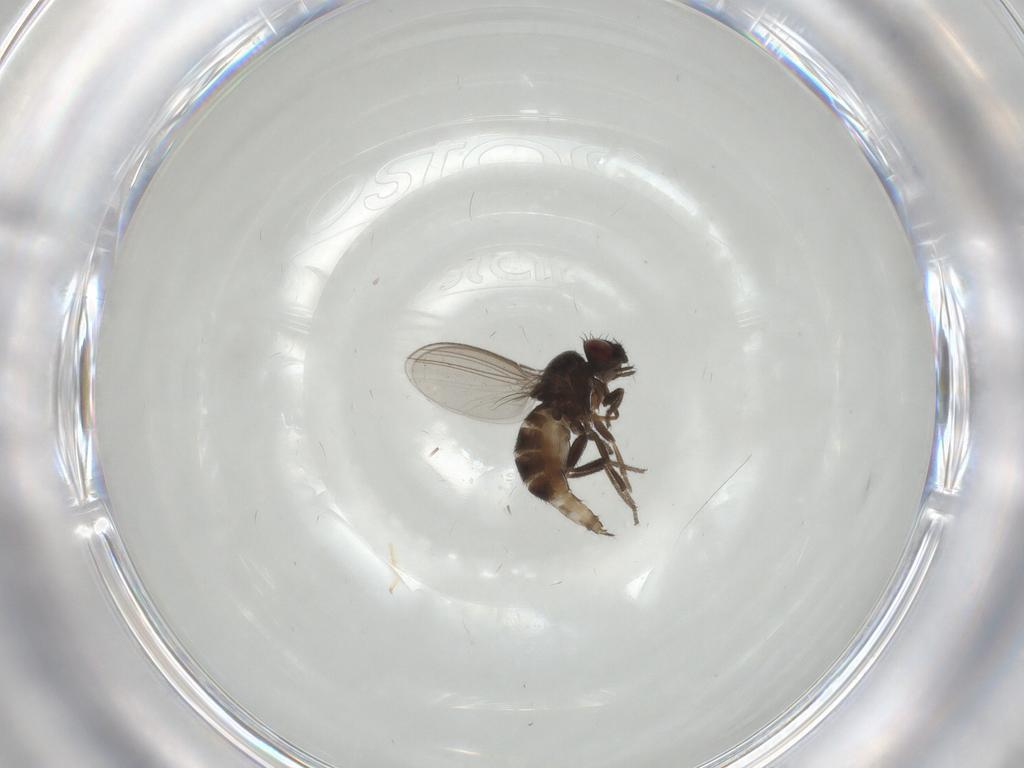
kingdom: Animalia
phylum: Arthropoda
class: Insecta
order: Diptera
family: Milichiidae
